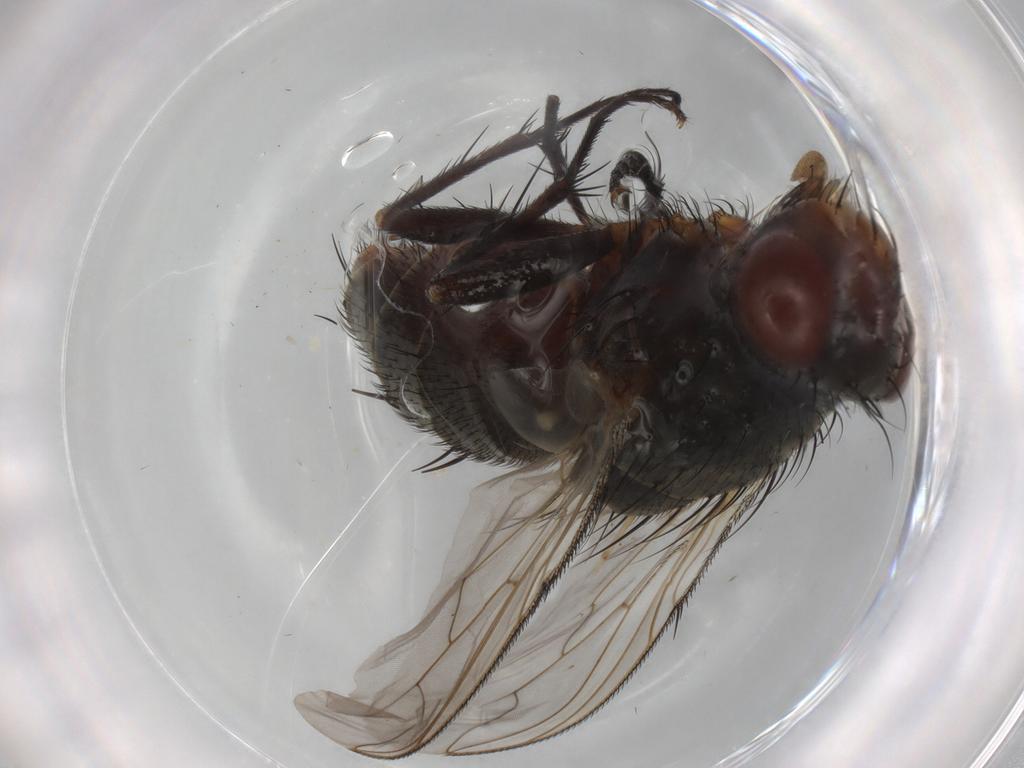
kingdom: Animalia
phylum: Arthropoda
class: Insecta
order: Diptera
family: Sarcophagidae
